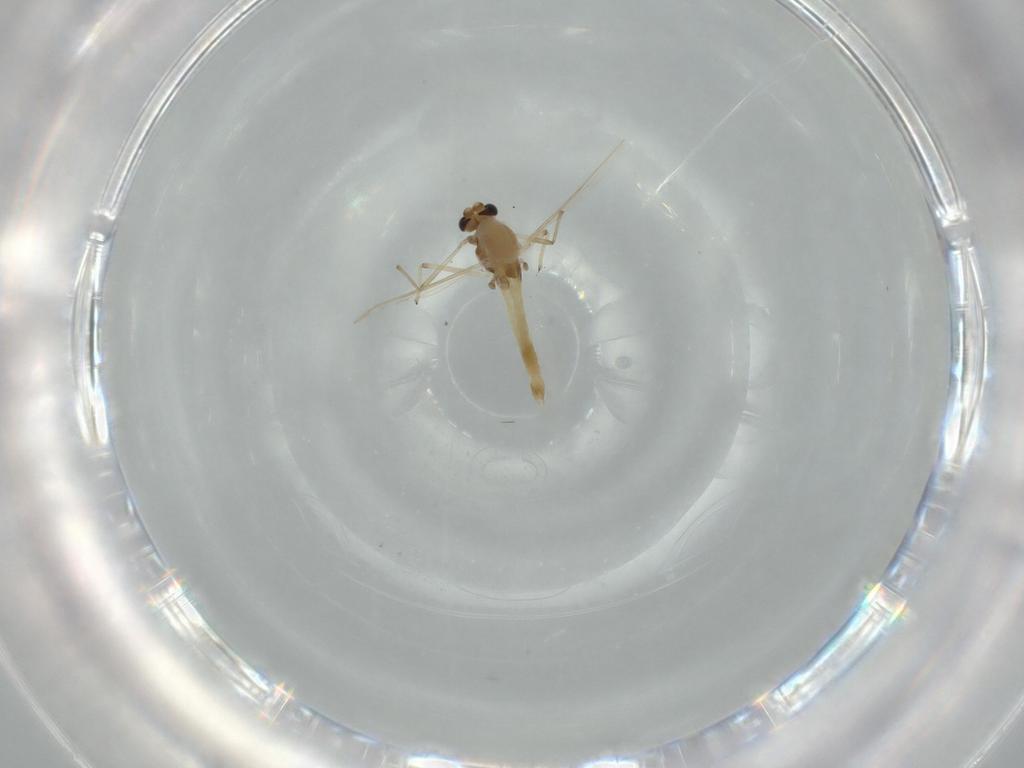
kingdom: Animalia
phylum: Arthropoda
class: Insecta
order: Diptera
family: Chironomidae
